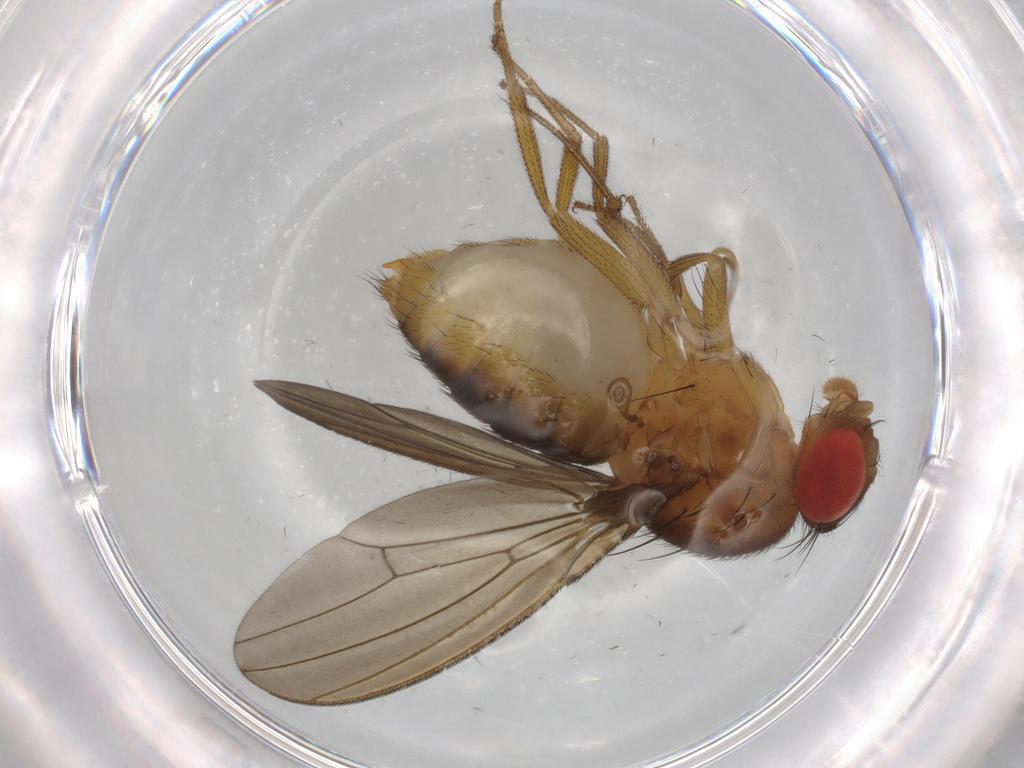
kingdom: Animalia
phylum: Arthropoda
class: Insecta
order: Diptera
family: Drosophilidae
